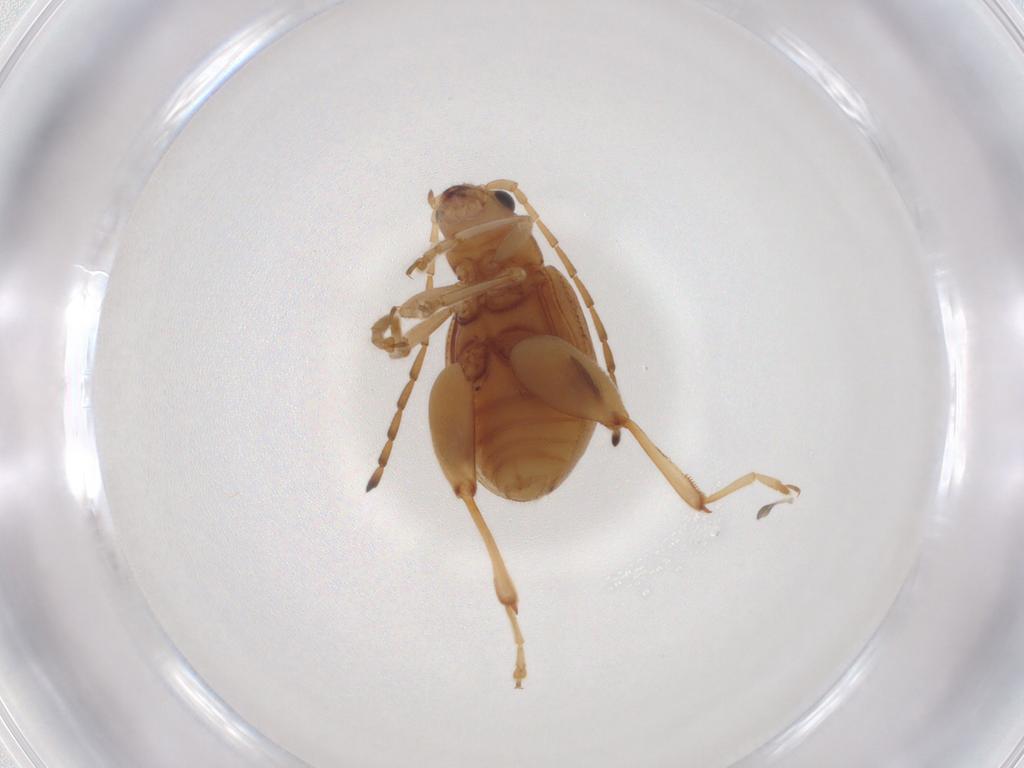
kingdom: Animalia
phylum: Arthropoda
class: Insecta
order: Coleoptera
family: Chrysomelidae
